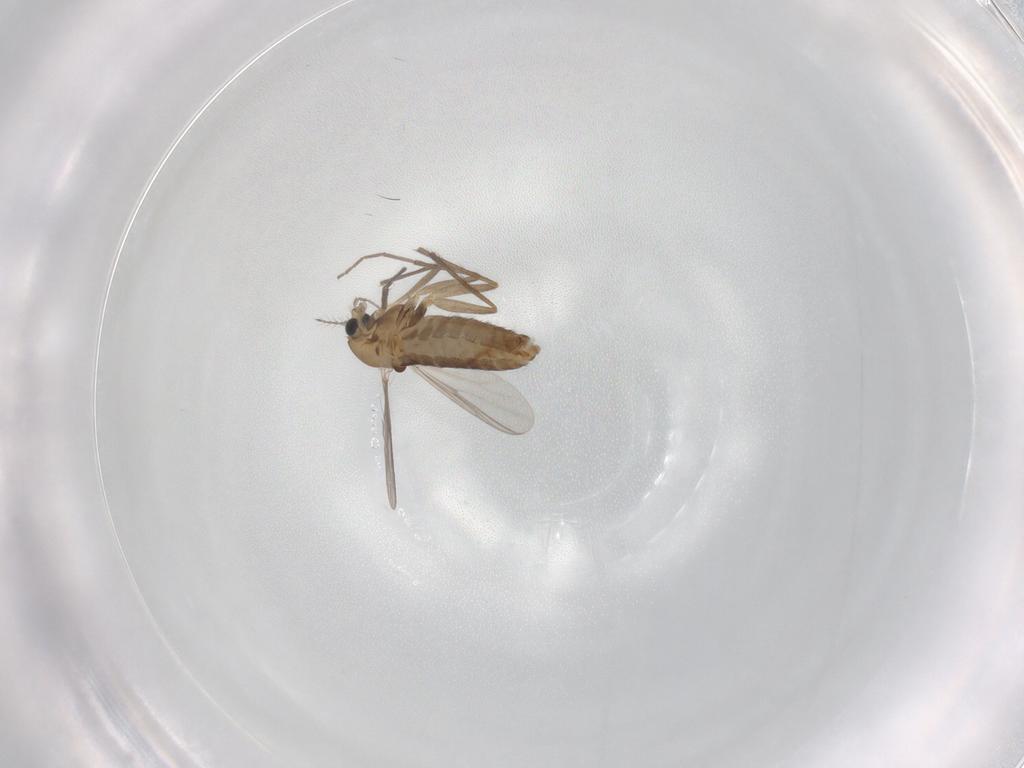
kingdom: Animalia
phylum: Arthropoda
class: Insecta
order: Diptera
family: Chironomidae
